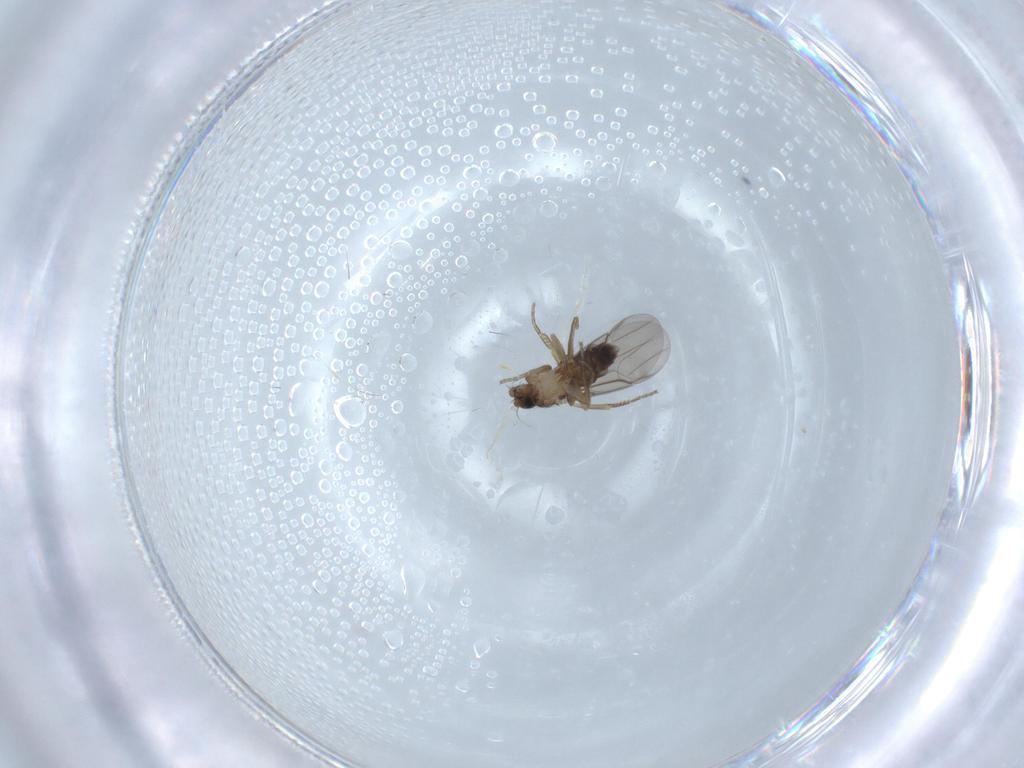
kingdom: Animalia
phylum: Arthropoda
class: Insecta
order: Diptera
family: Phoridae
